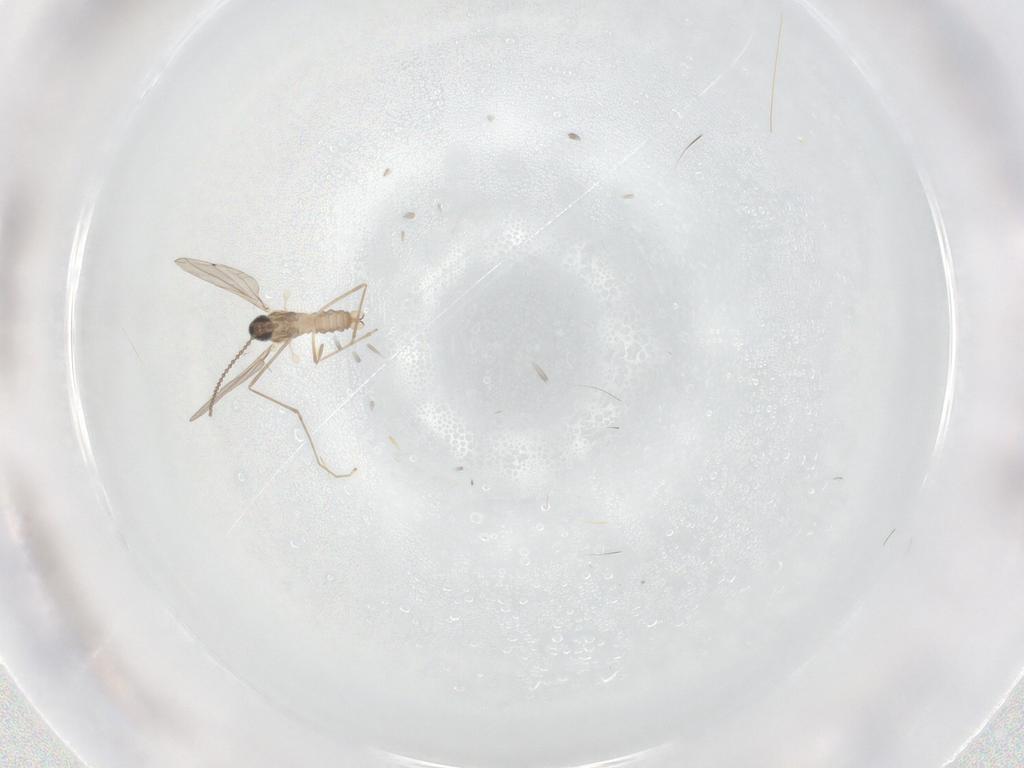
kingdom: Animalia
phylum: Arthropoda
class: Insecta
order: Diptera
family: Cecidomyiidae
